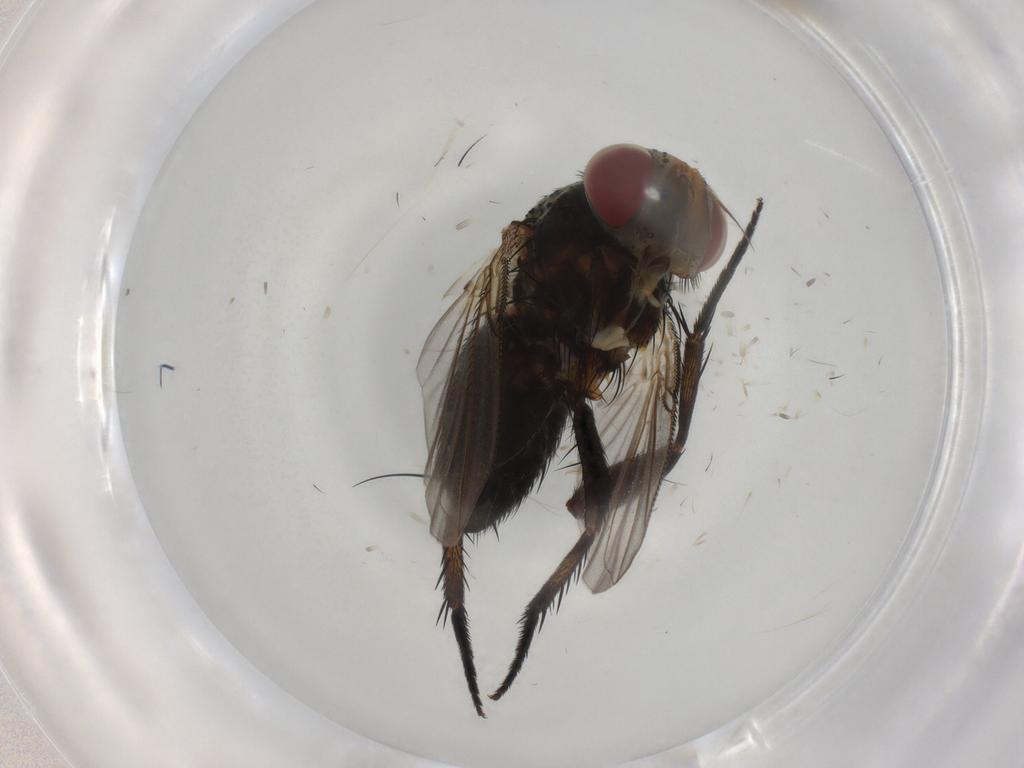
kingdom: Animalia
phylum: Arthropoda
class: Insecta
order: Diptera
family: Tachinidae
